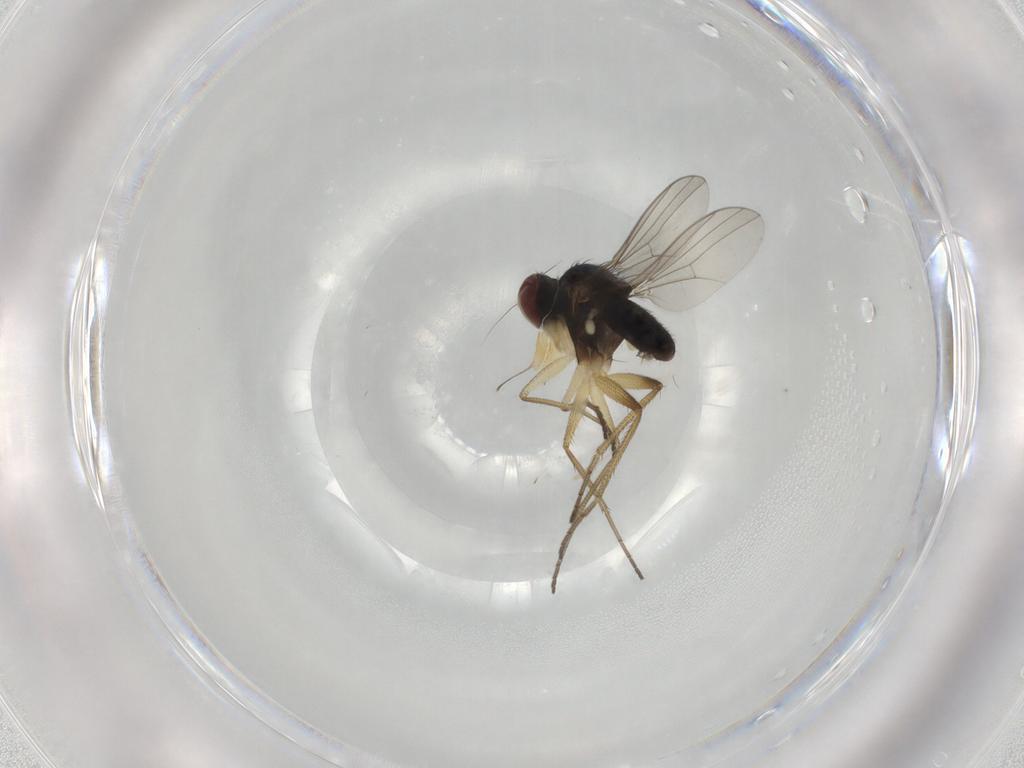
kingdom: Animalia
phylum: Arthropoda
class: Insecta
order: Diptera
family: Dolichopodidae
